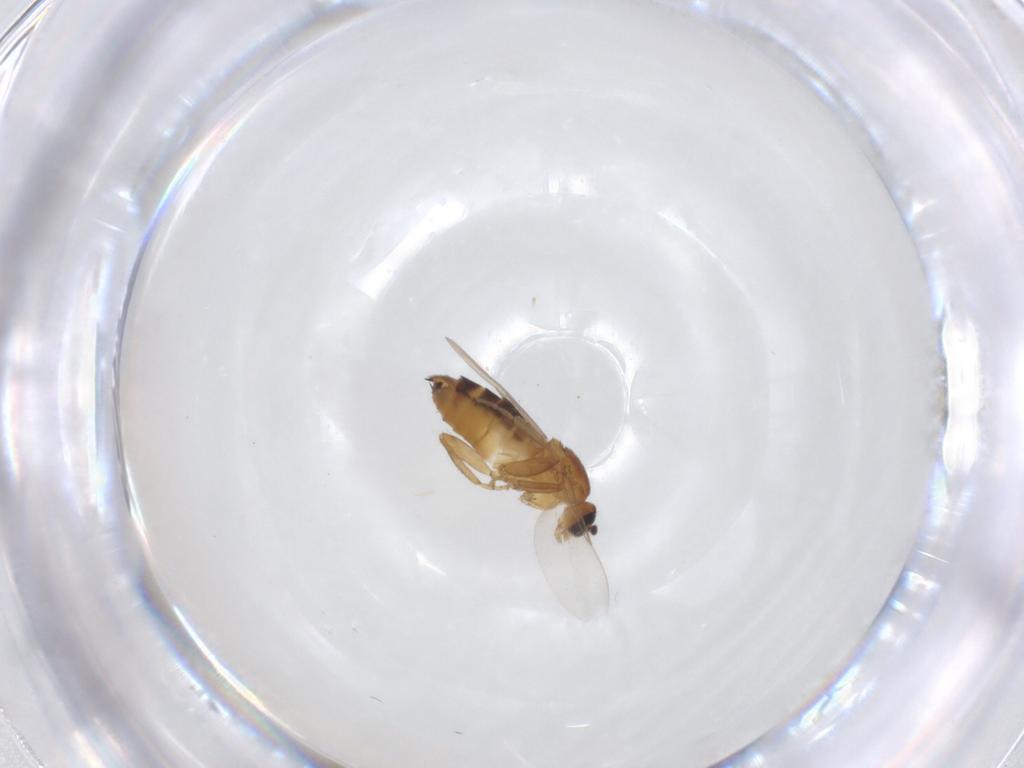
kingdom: Animalia
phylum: Arthropoda
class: Insecta
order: Diptera
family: Scatopsidae
